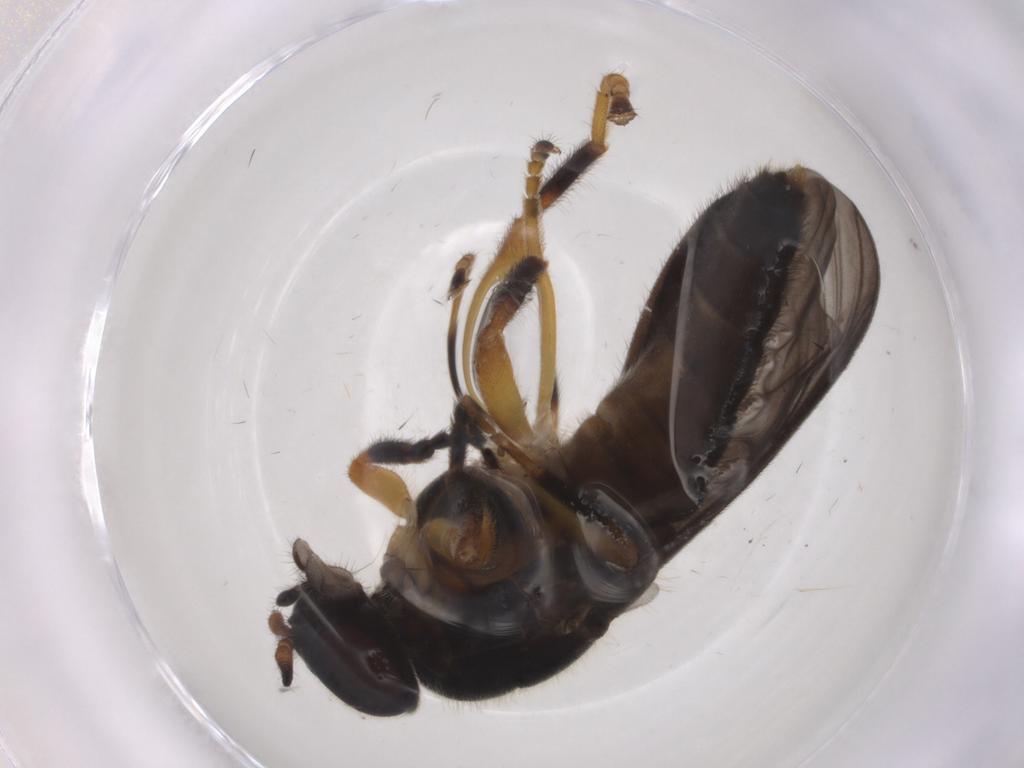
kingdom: Animalia
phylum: Arthropoda
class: Insecta
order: Diptera
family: Stratiomyidae
